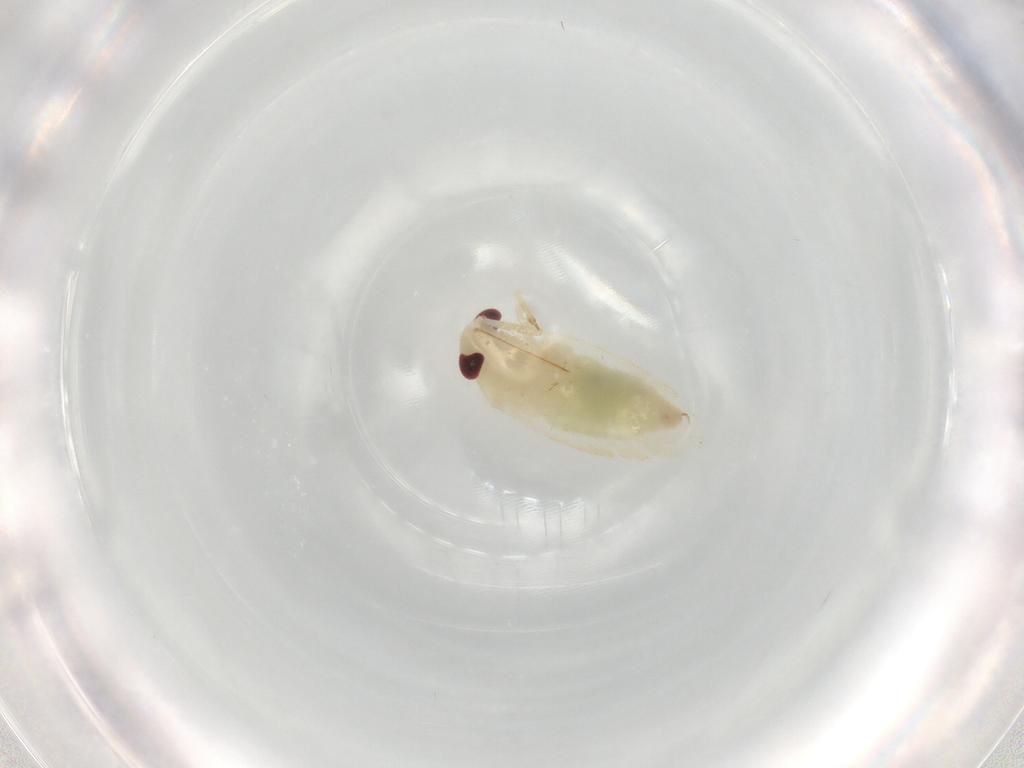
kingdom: Animalia
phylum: Arthropoda
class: Insecta
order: Hemiptera
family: Miridae
